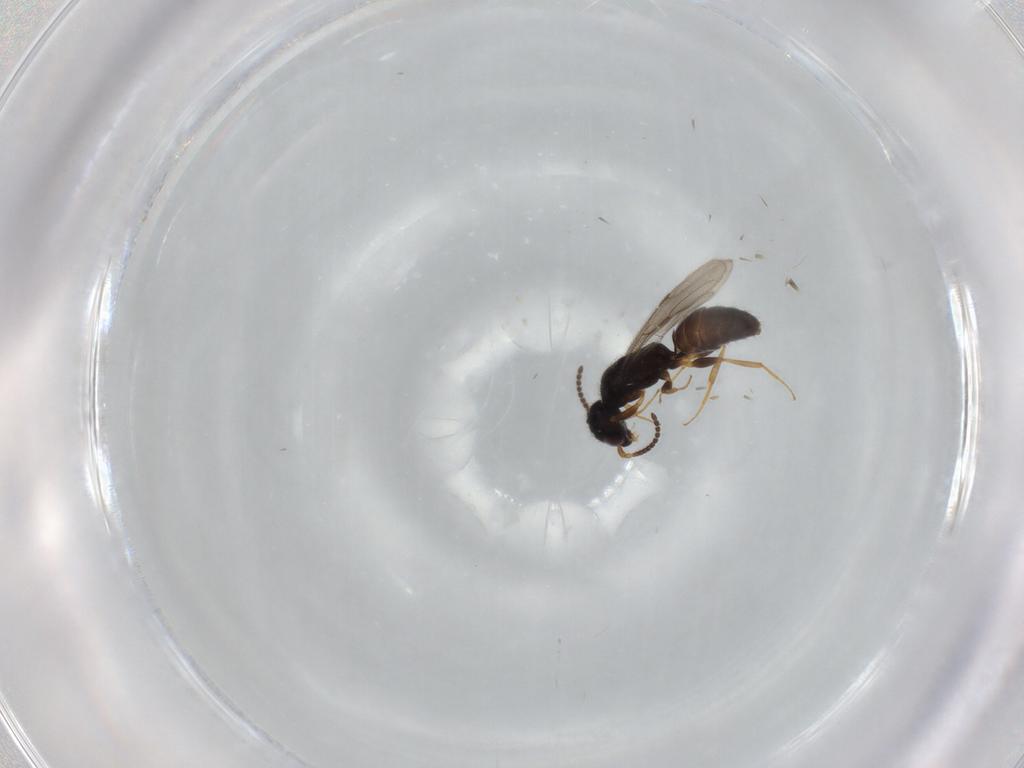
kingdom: Animalia
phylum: Arthropoda
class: Insecta
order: Hymenoptera
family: Bethylidae
